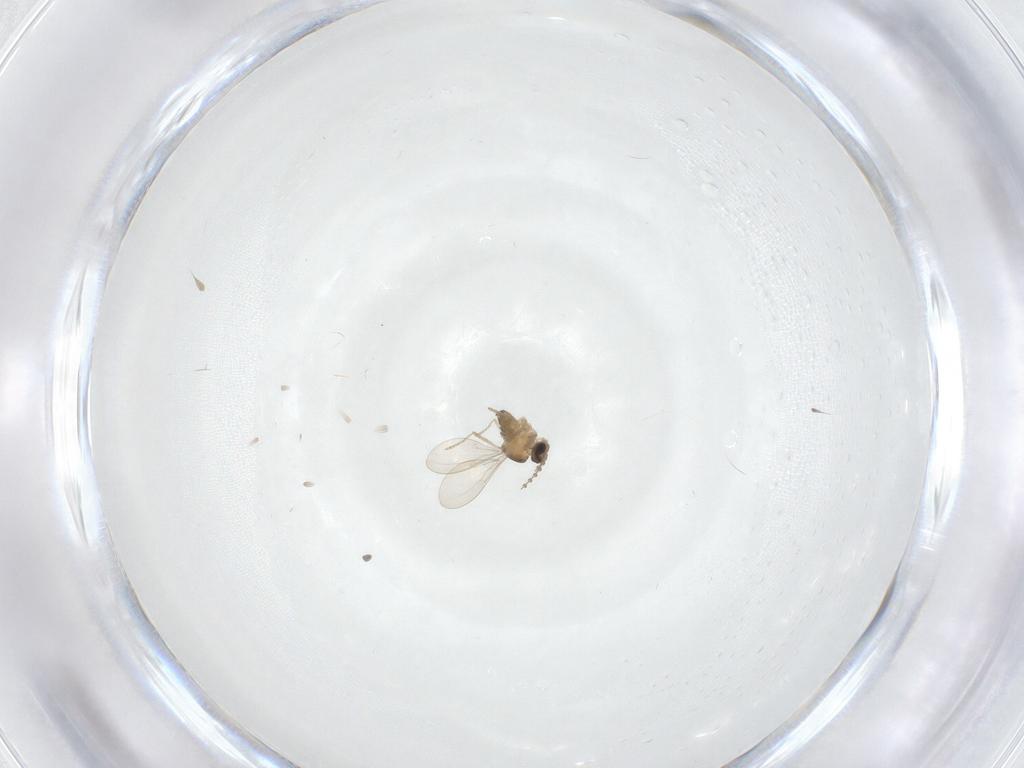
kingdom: Animalia
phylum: Arthropoda
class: Insecta
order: Diptera
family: Cecidomyiidae
